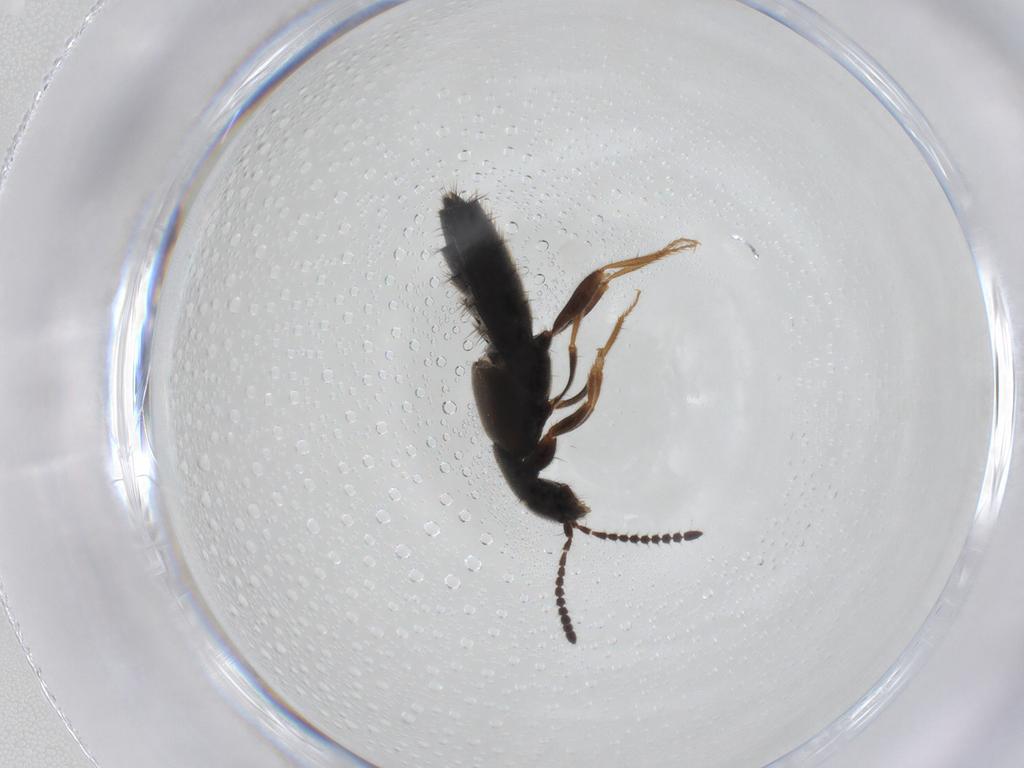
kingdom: Animalia
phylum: Arthropoda
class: Insecta
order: Coleoptera
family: Staphylinidae
